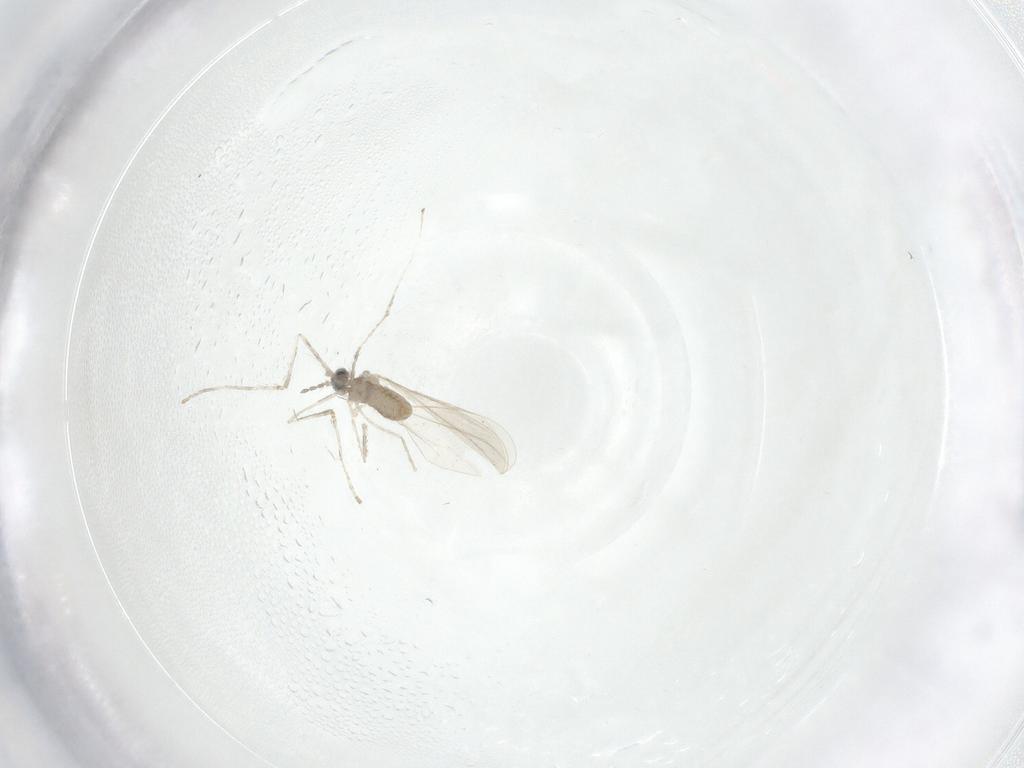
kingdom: Animalia
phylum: Arthropoda
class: Insecta
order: Diptera
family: Cecidomyiidae
